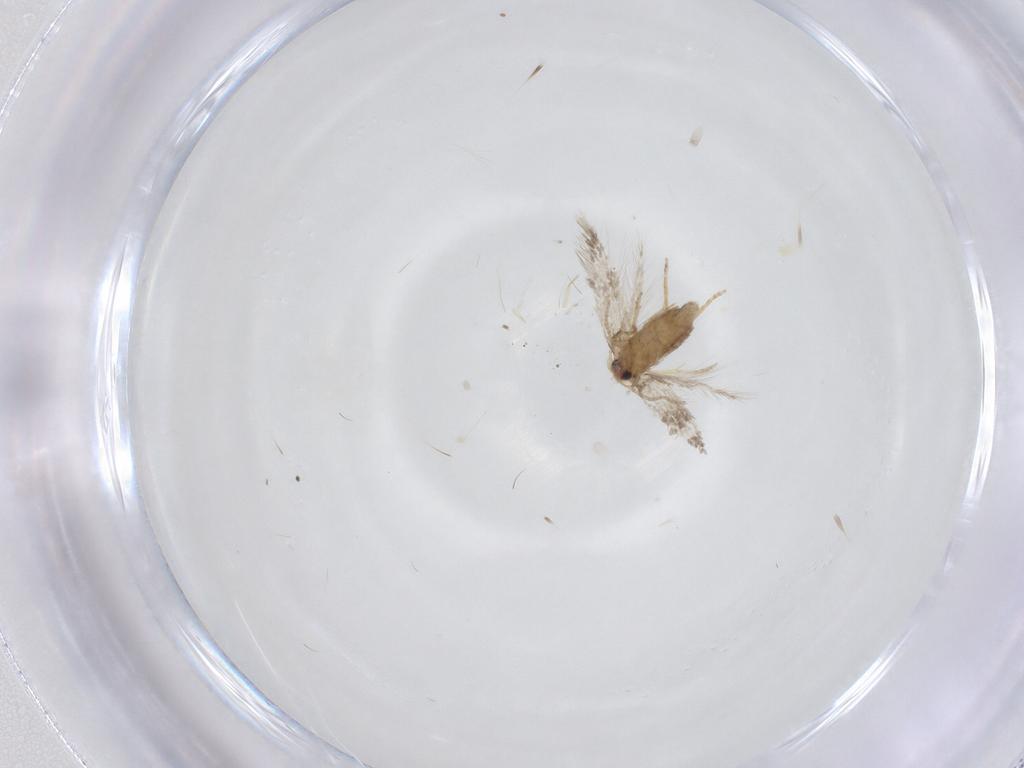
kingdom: Animalia
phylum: Arthropoda
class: Insecta
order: Lepidoptera
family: Nepticulidae
